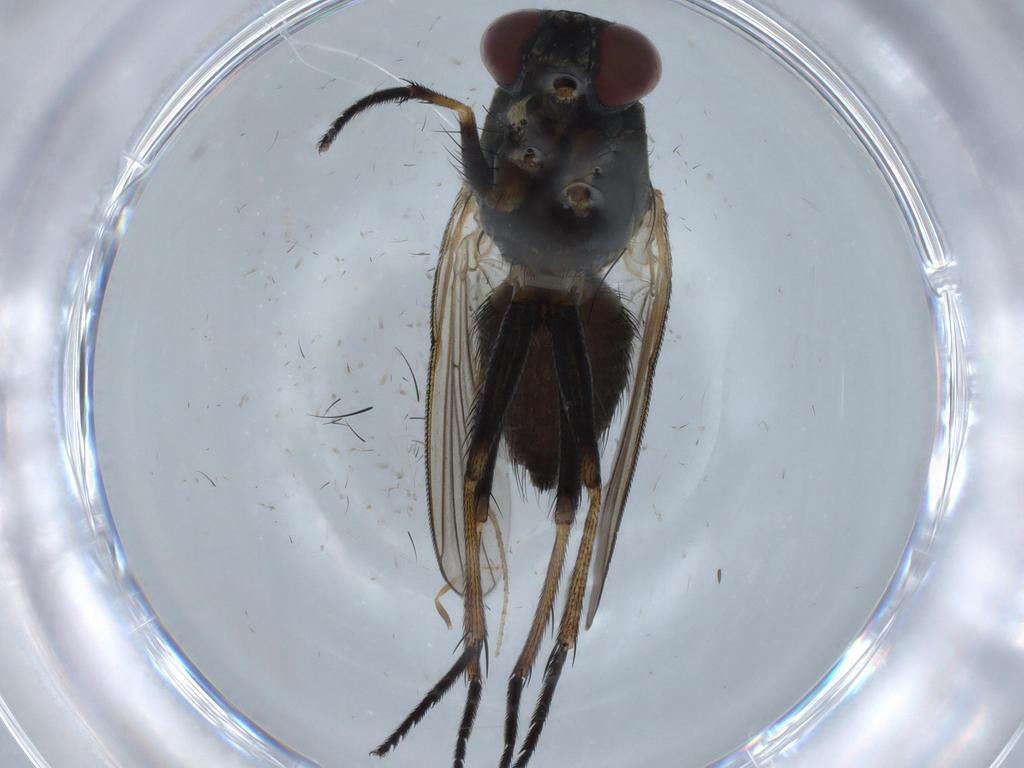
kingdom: Animalia
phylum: Arthropoda
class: Insecta
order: Diptera
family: Muscidae
